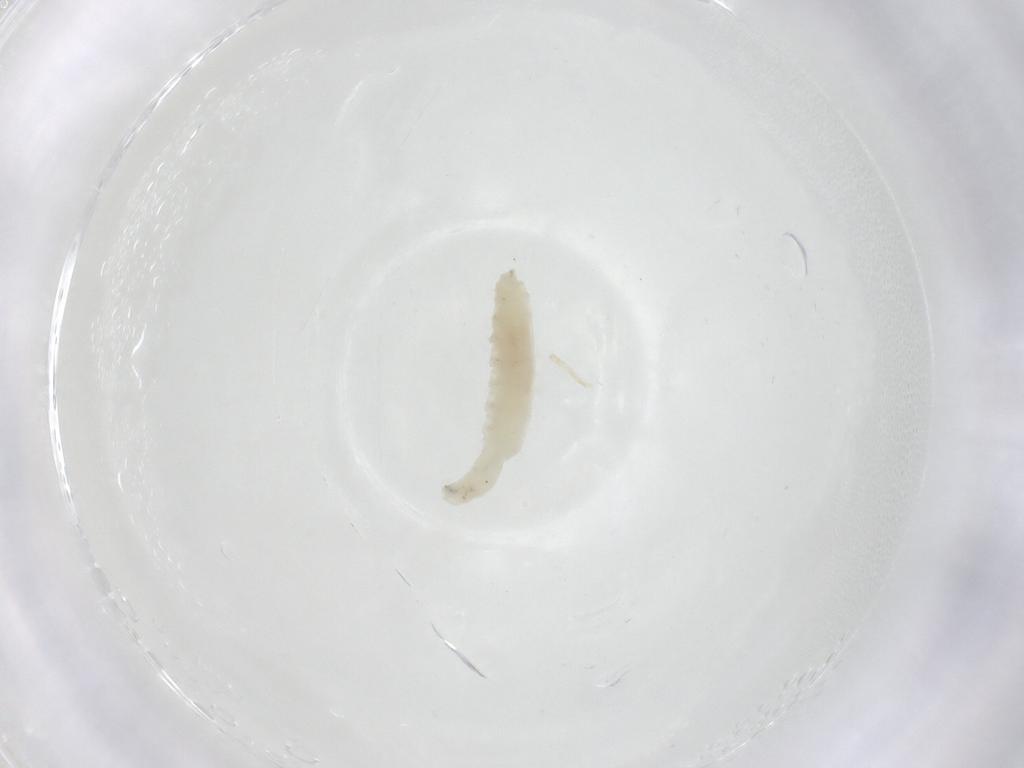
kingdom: Animalia
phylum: Arthropoda
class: Insecta
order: Diptera
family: Chloropidae
